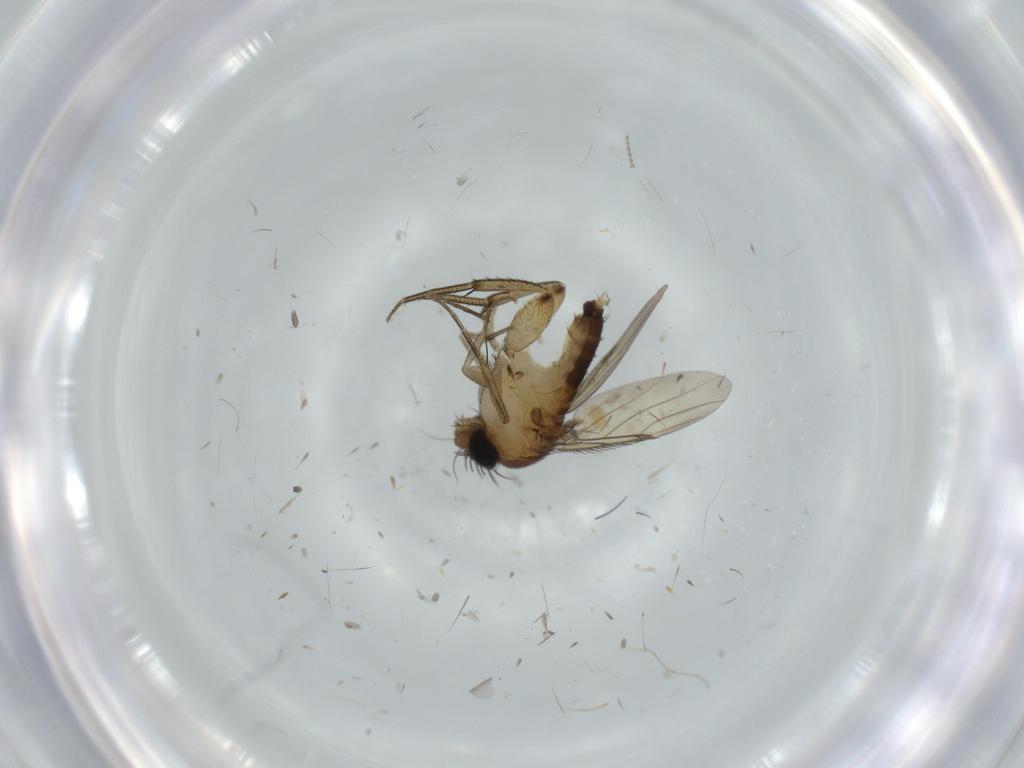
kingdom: Animalia
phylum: Arthropoda
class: Insecta
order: Diptera
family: Phoridae
